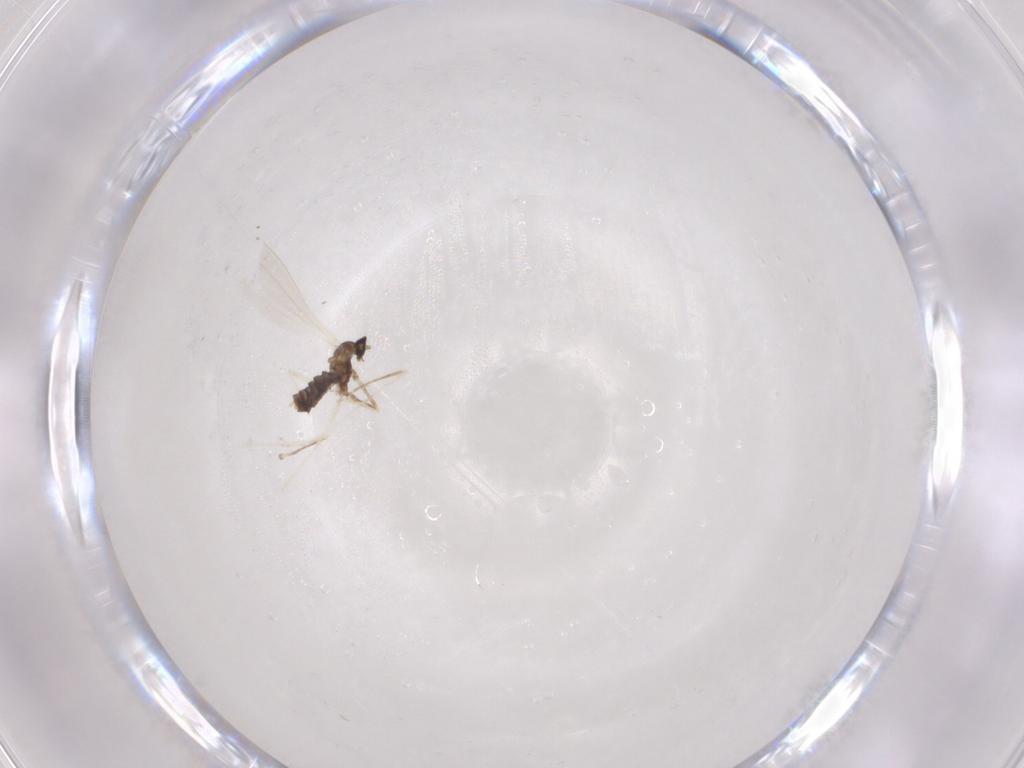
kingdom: Animalia
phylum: Arthropoda
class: Insecta
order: Diptera
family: Cecidomyiidae
